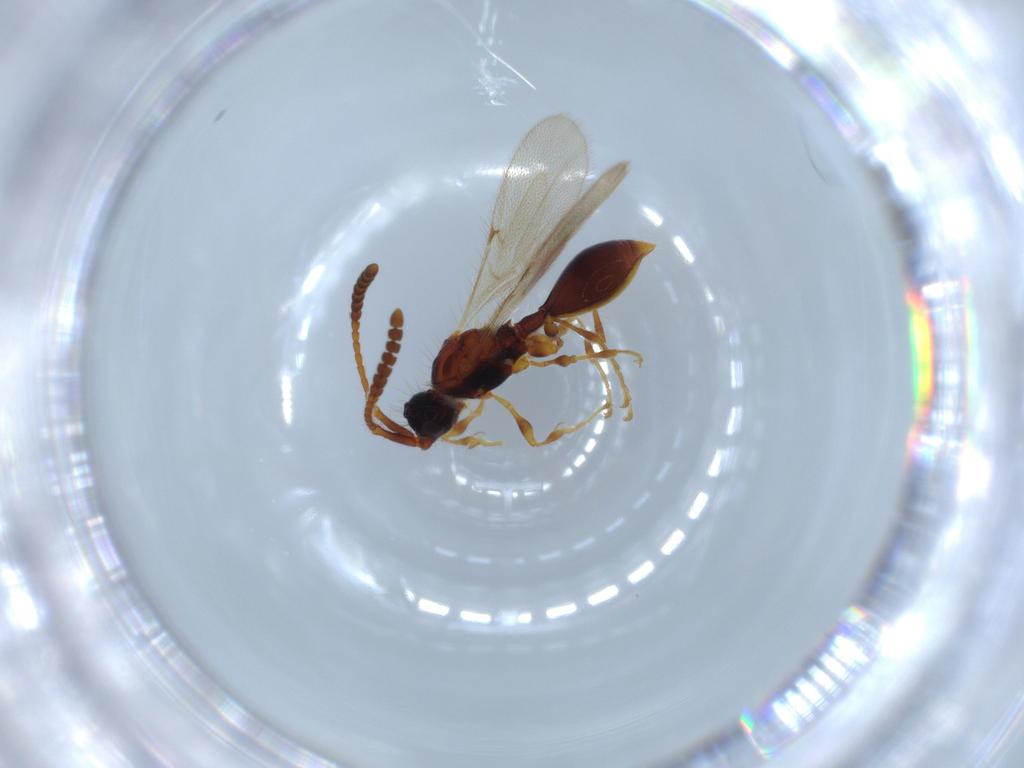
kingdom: Animalia
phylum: Arthropoda
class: Insecta
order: Hymenoptera
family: Diapriidae
